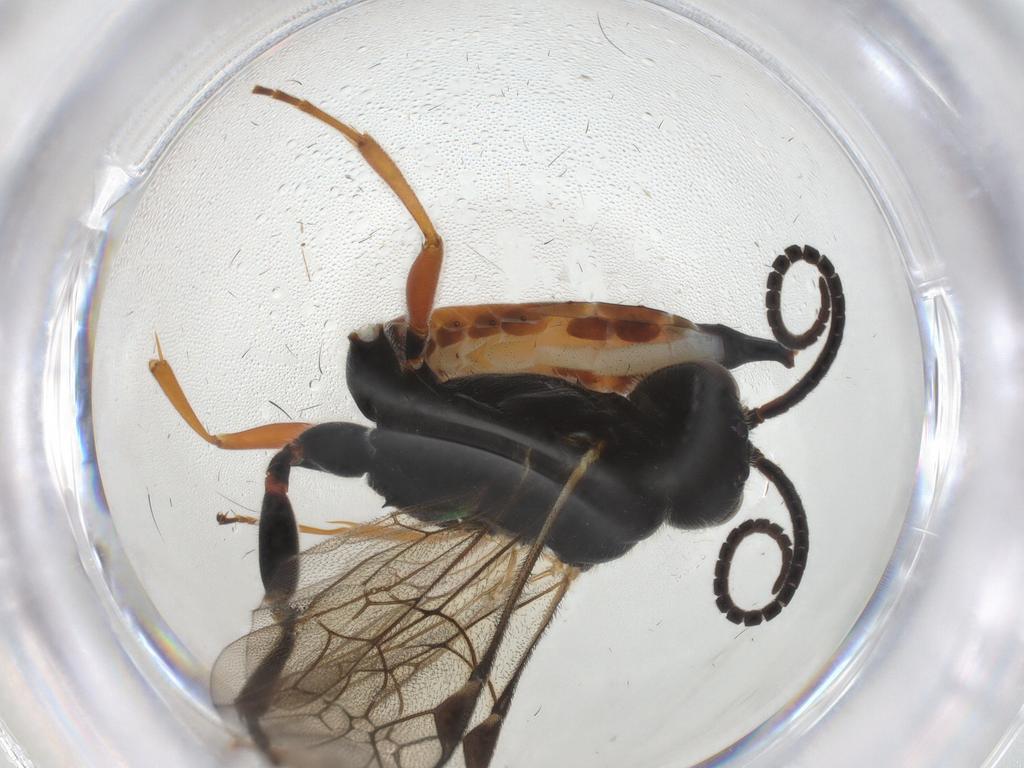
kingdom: Animalia
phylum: Arthropoda
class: Insecta
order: Hymenoptera
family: Ichneumonidae
